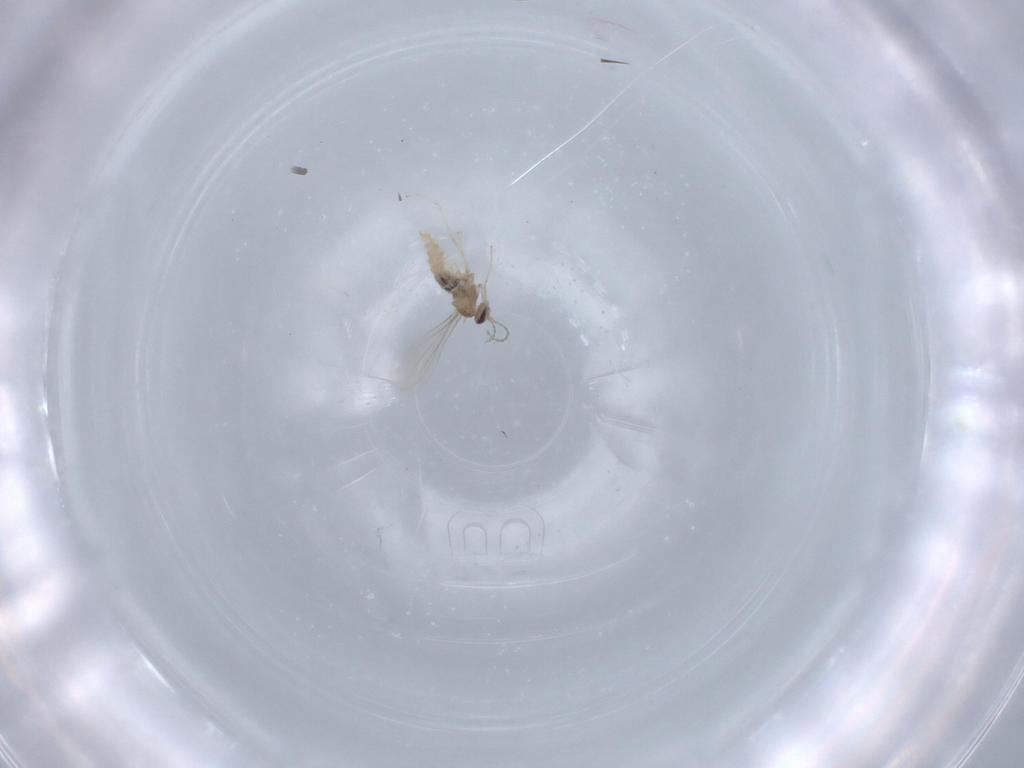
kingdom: Animalia
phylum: Arthropoda
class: Insecta
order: Diptera
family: Cecidomyiidae
